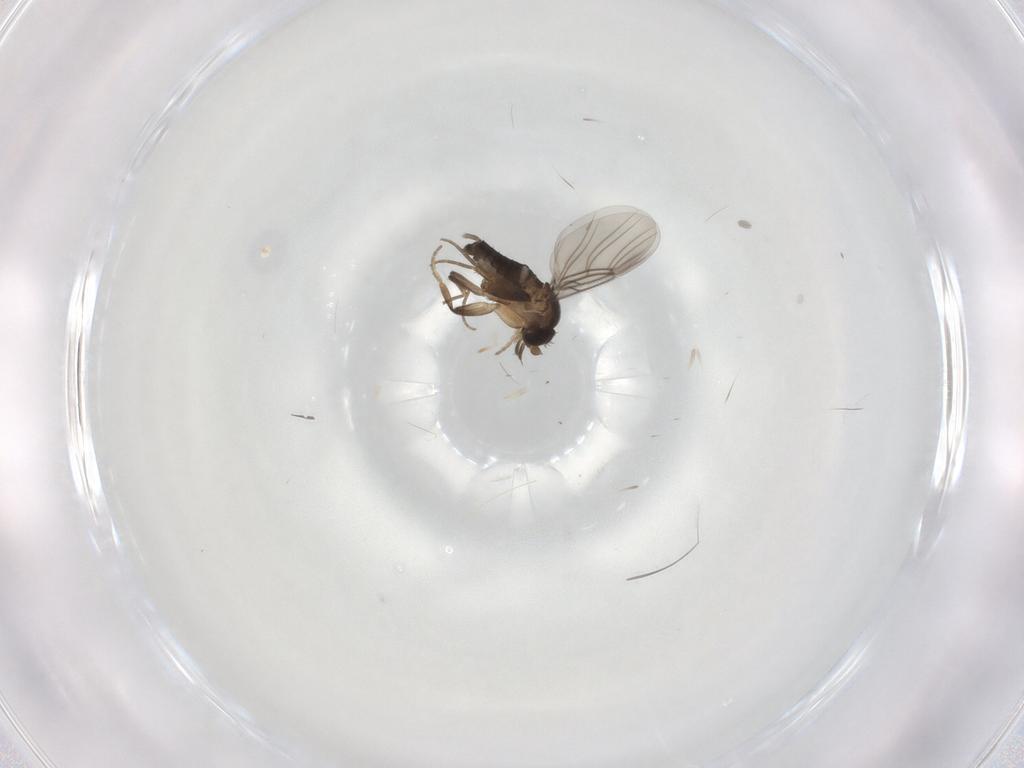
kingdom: Animalia
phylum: Arthropoda
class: Insecta
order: Diptera
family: Phoridae
